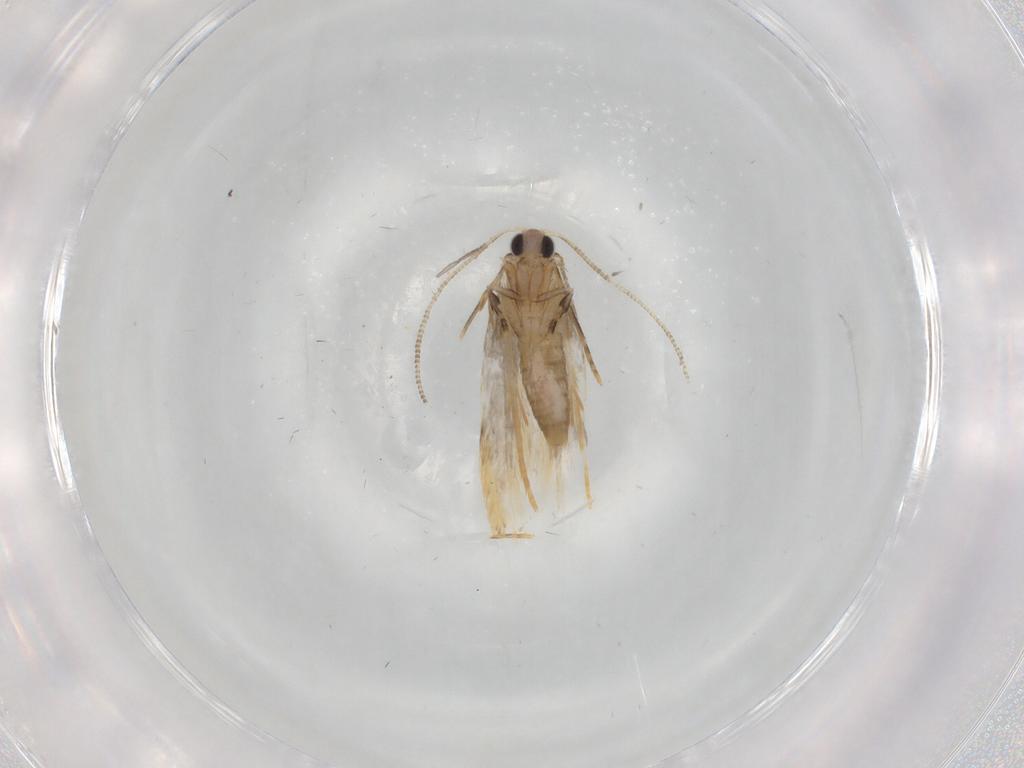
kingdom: Animalia
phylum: Arthropoda
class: Insecta
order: Lepidoptera
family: Tineidae
